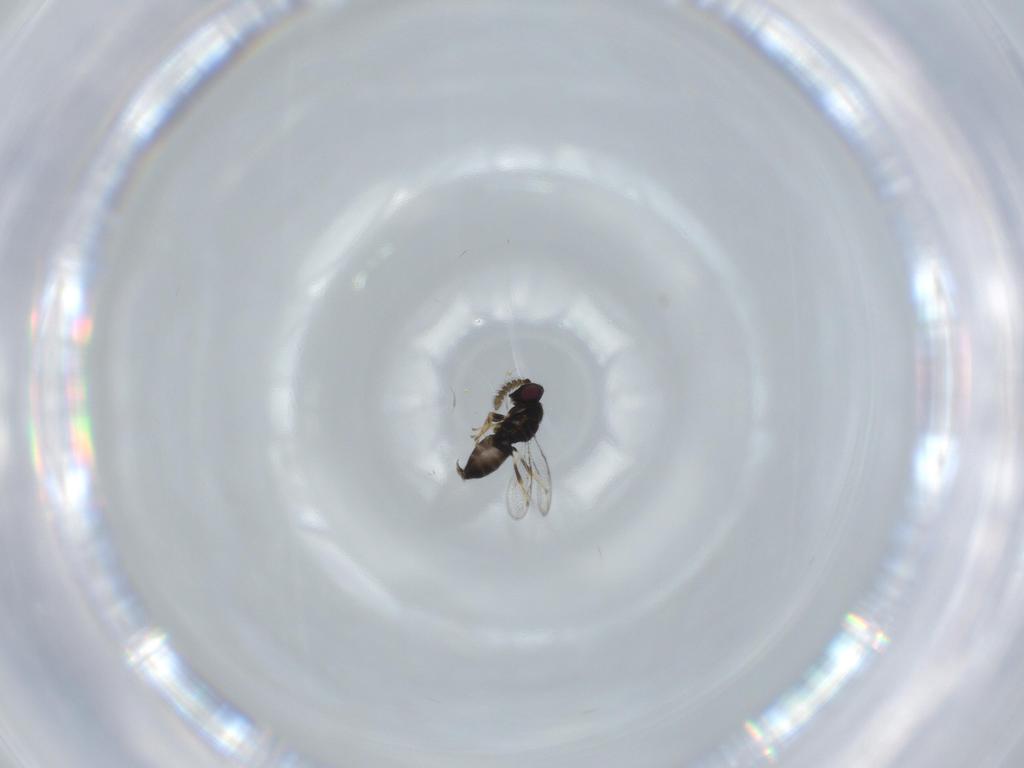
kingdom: Animalia
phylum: Arthropoda
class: Insecta
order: Hymenoptera
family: Pirenidae
